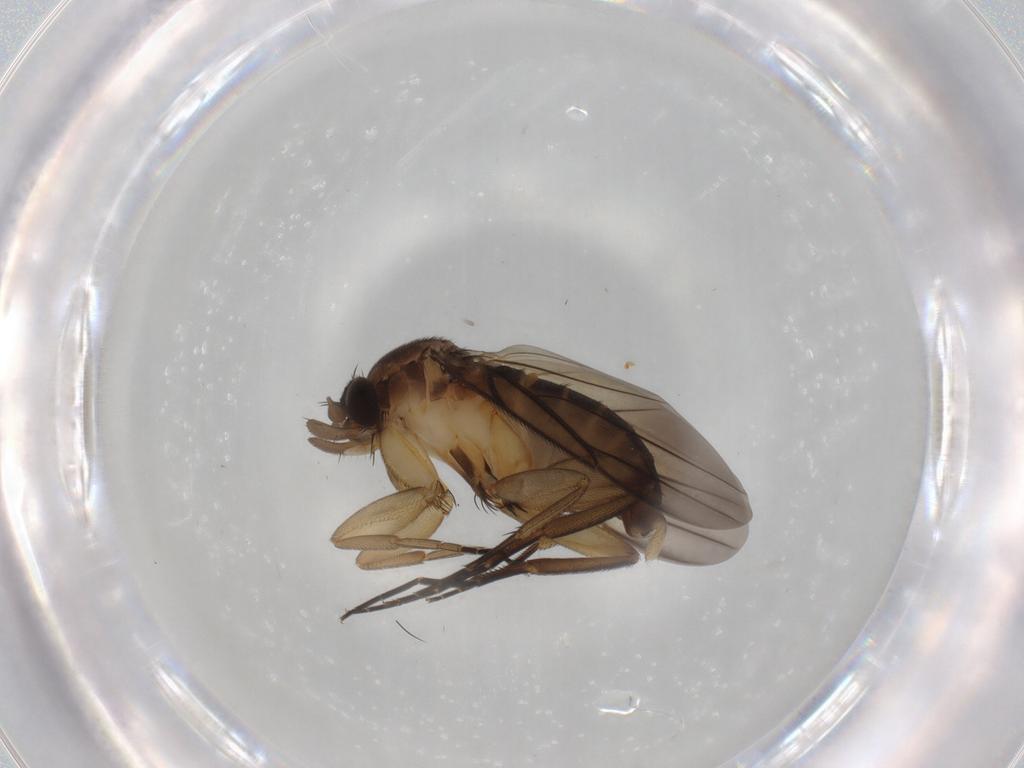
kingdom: Animalia
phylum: Arthropoda
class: Insecta
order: Diptera
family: Phoridae
